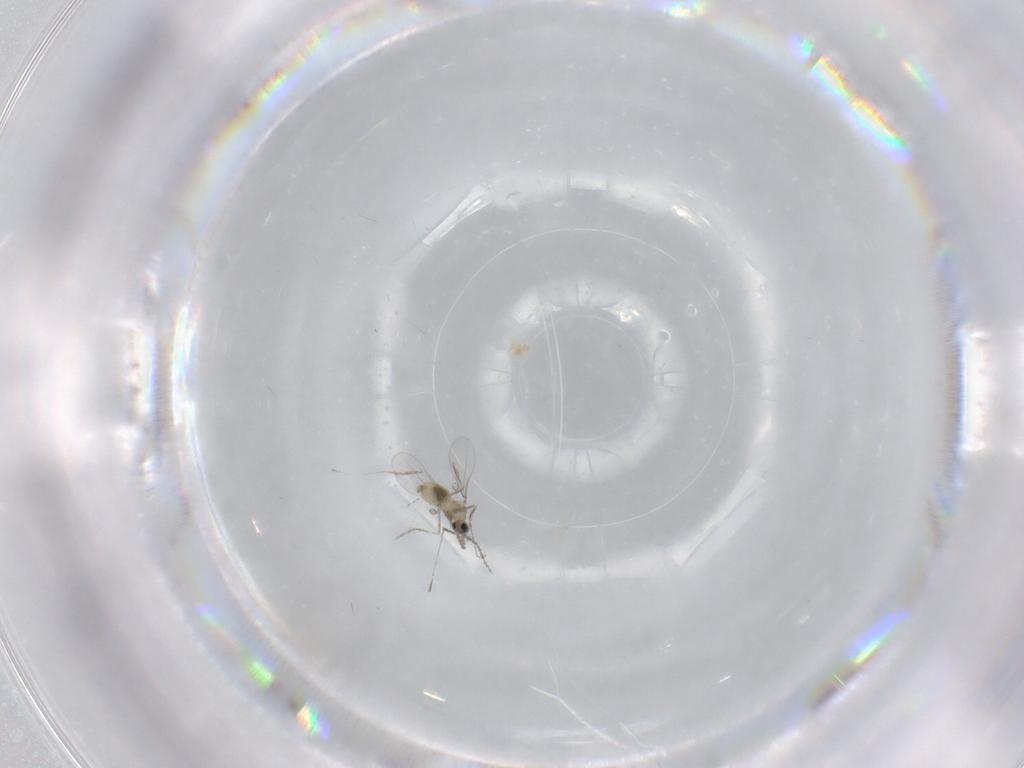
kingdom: Animalia
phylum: Arthropoda
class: Insecta
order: Diptera
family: Cecidomyiidae
